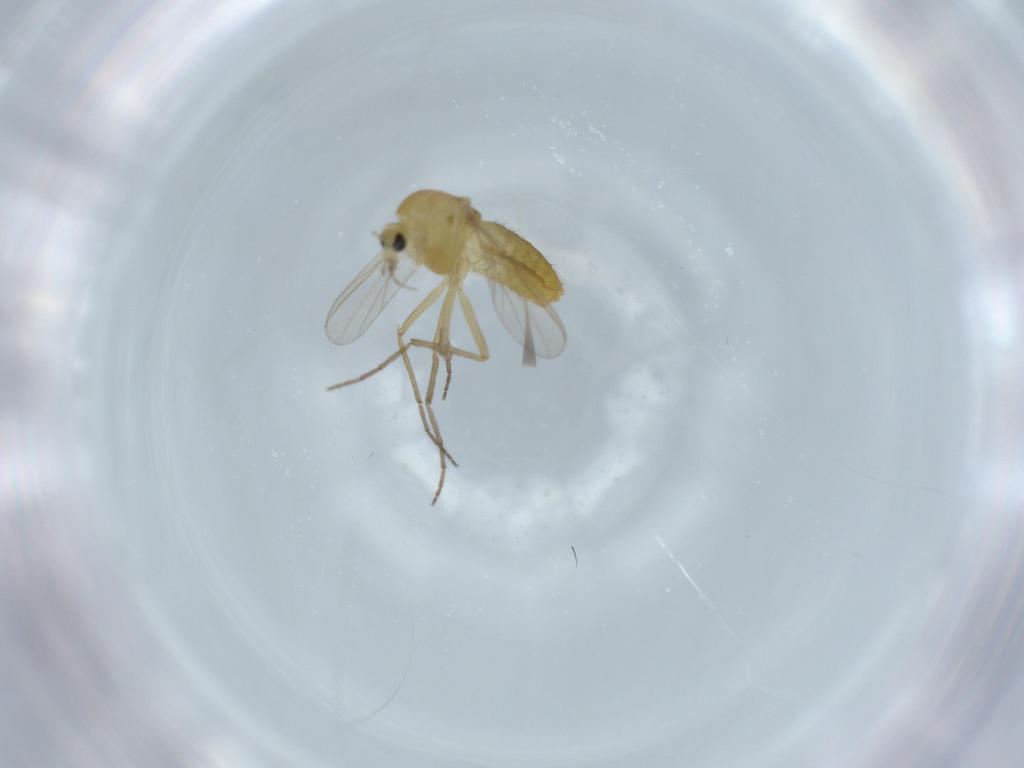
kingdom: Animalia
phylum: Arthropoda
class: Insecta
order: Diptera
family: Chironomidae
